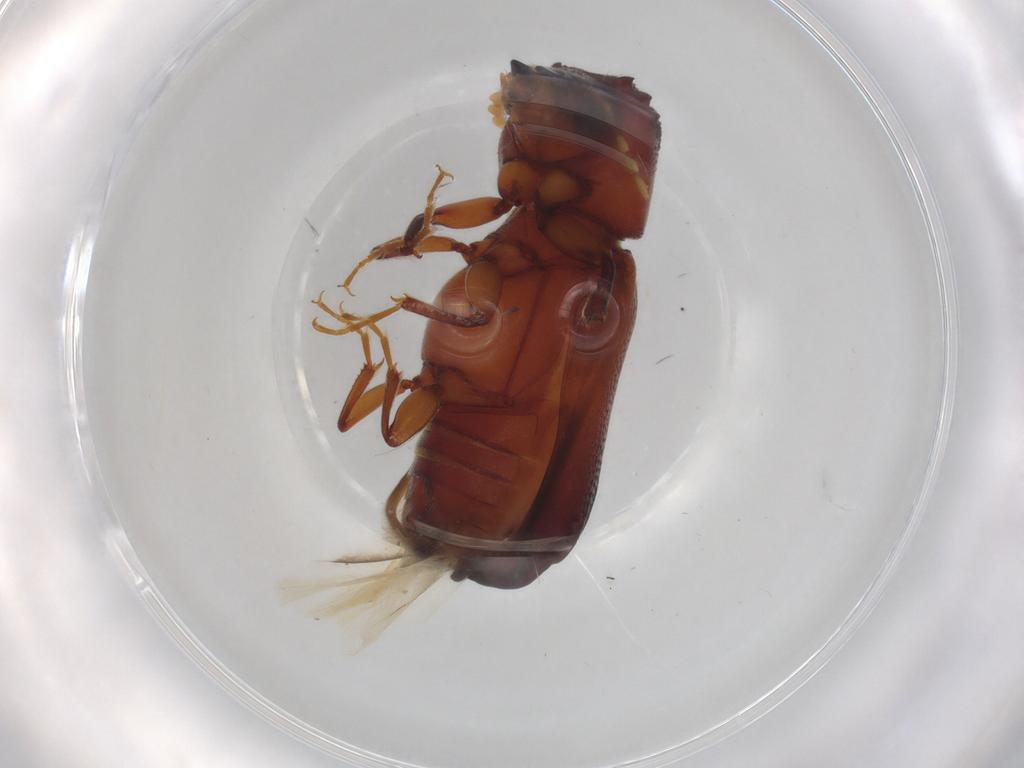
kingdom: Animalia
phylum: Arthropoda
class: Insecta
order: Coleoptera
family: Bostrichidae
